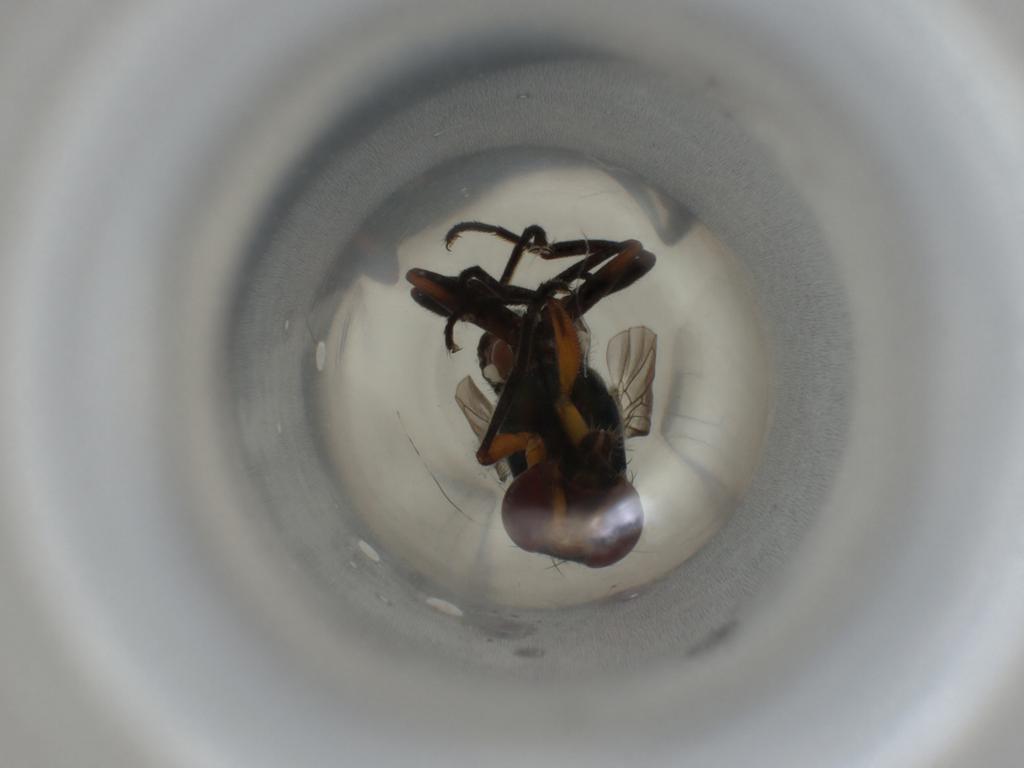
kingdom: Animalia
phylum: Arthropoda
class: Insecta
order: Diptera
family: Platystomatidae
